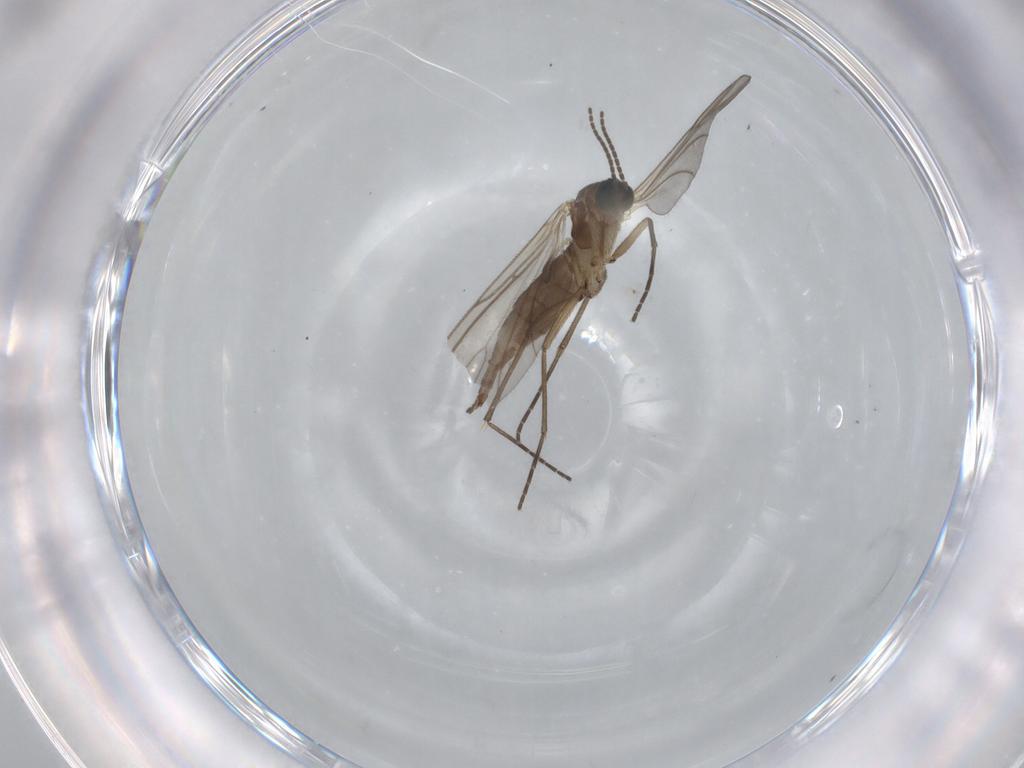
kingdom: Animalia
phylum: Arthropoda
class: Insecta
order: Diptera
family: Sciaridae
